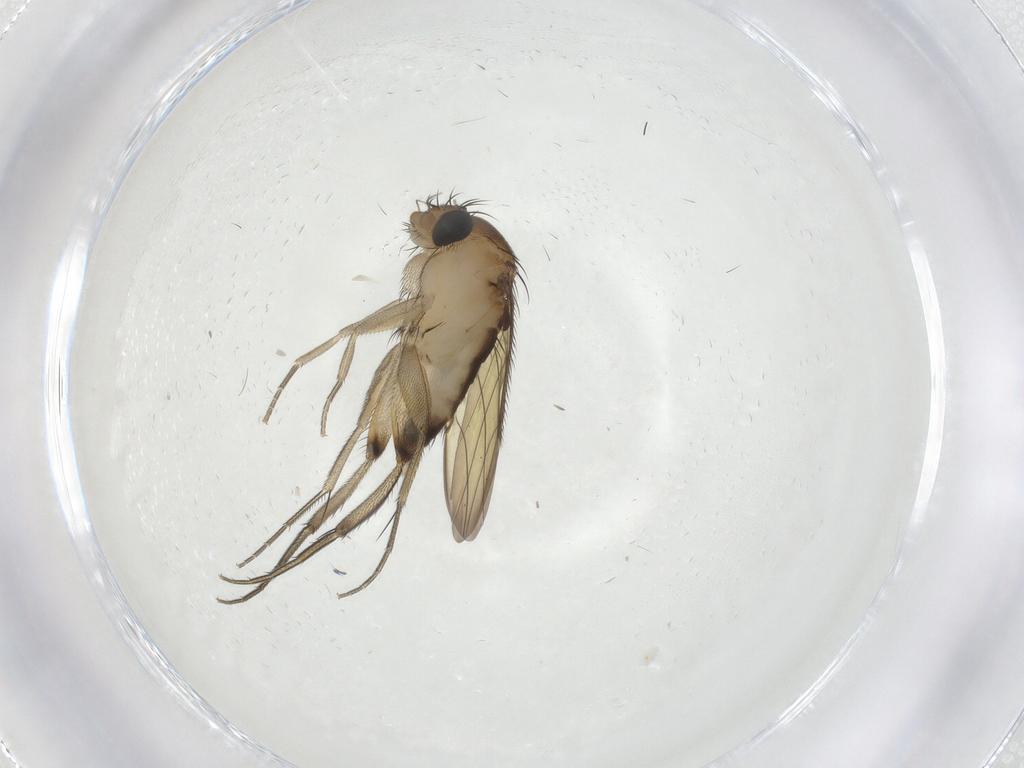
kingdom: Animalia
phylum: Arthropoda
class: Insecta
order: Diptera
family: Phoridae
